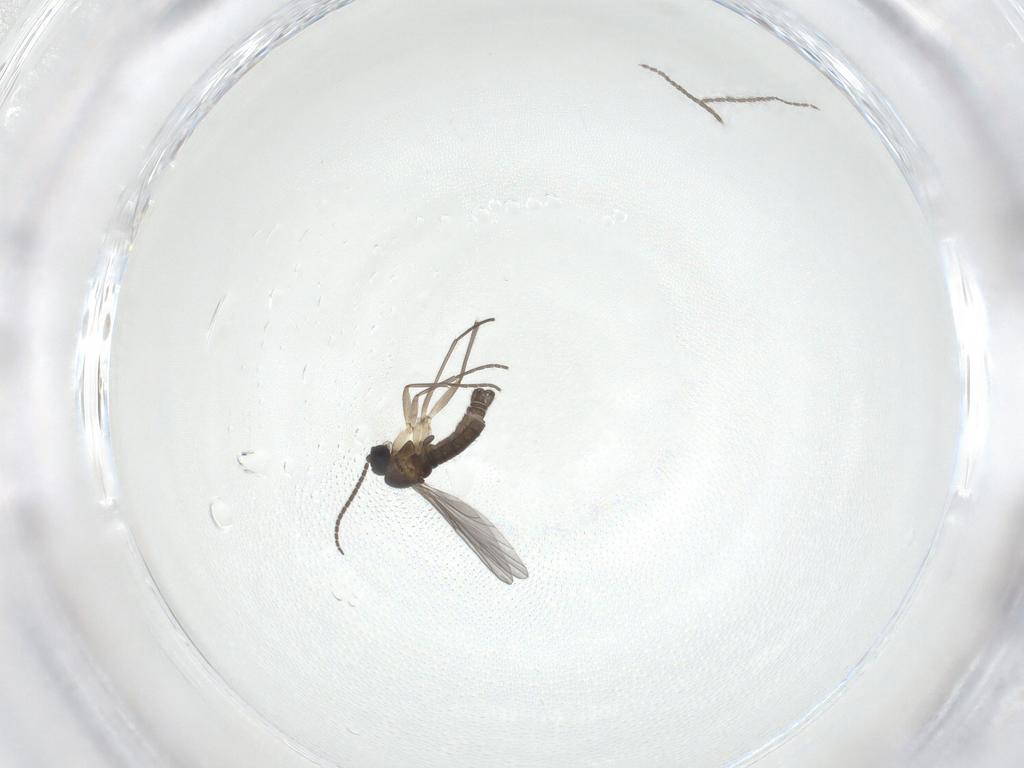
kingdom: Animalia
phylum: Arthropoda
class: Insecta
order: Diptera
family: Sciaridae
